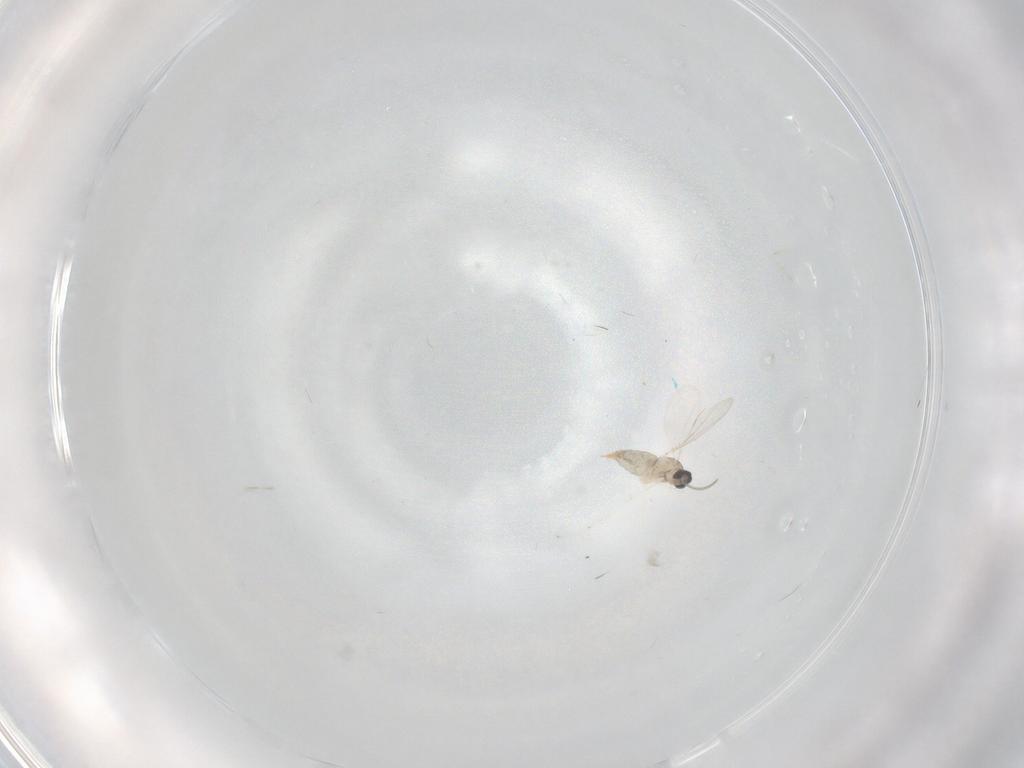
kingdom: Animalia
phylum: Arthropoda
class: Insecta
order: Diptera
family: Cecidomyiidae
